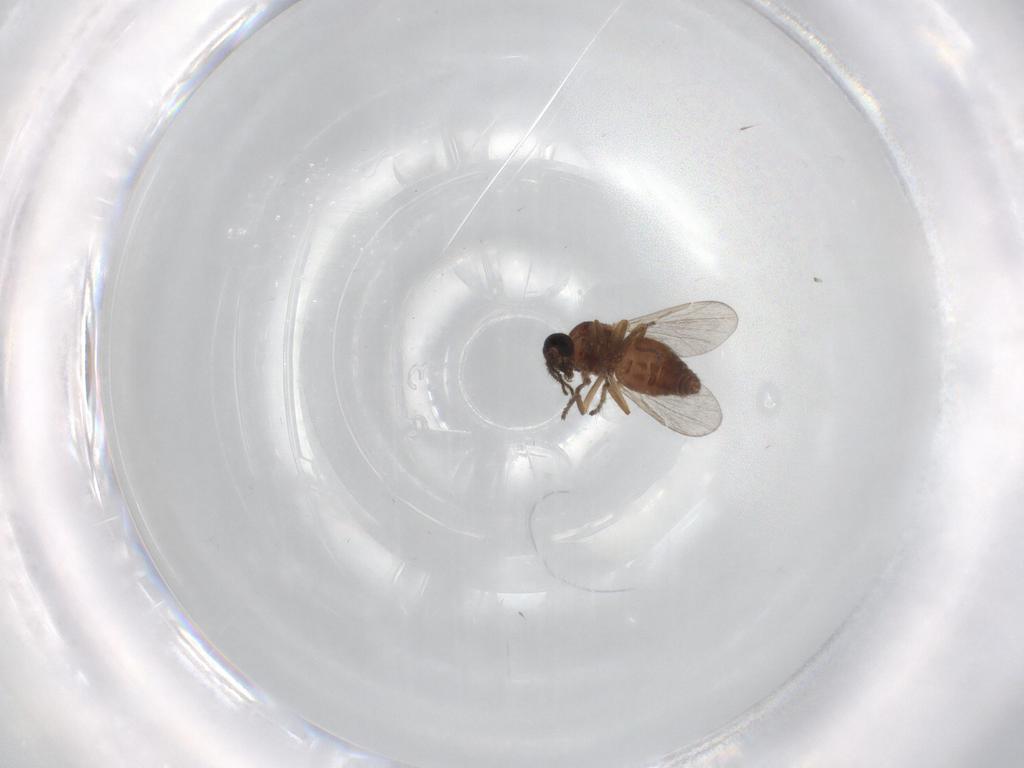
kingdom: Animalia
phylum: Arthropoda
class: Insecta
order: Diptera
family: Ceratopogonidae
